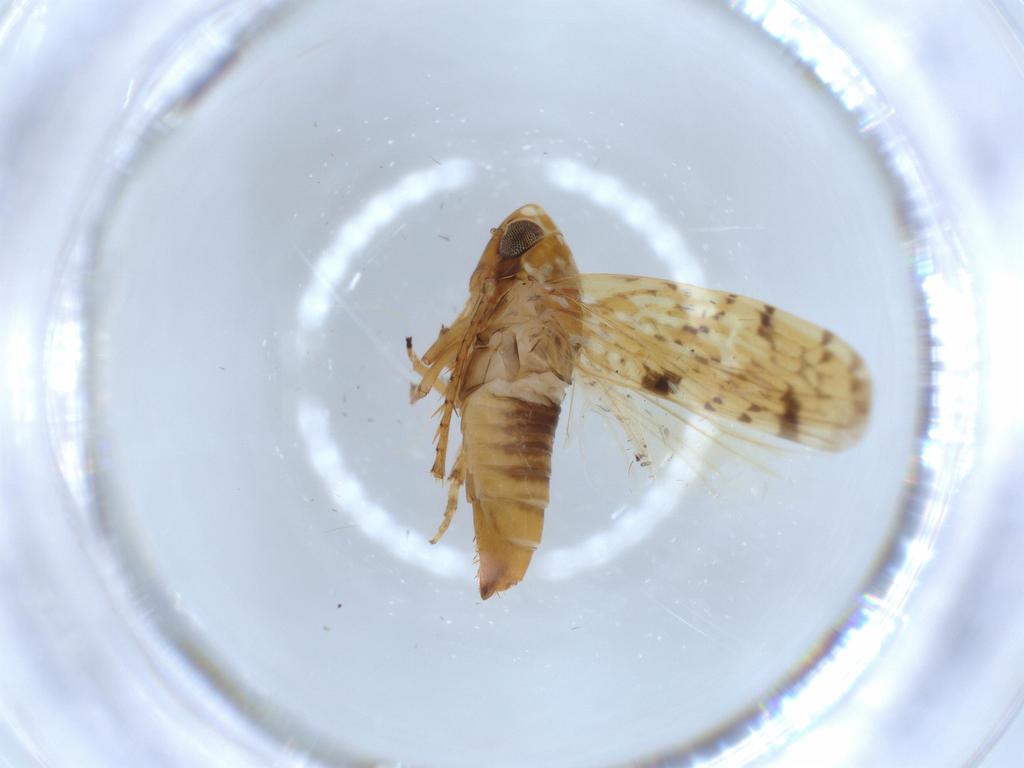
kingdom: Animalia
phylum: Arthropoda
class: Insecta
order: Hemiptera
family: Cicadellidae
